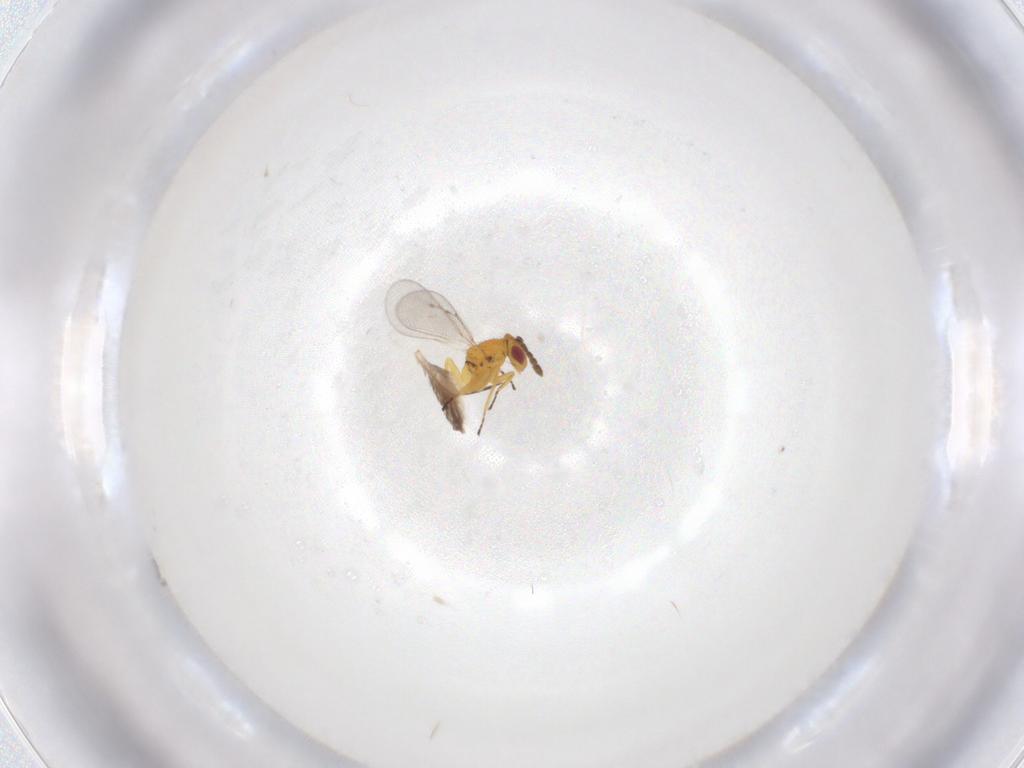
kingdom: Animalia
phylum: Arthropoda
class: Insecta
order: Hymenoptera
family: Eulophidae
